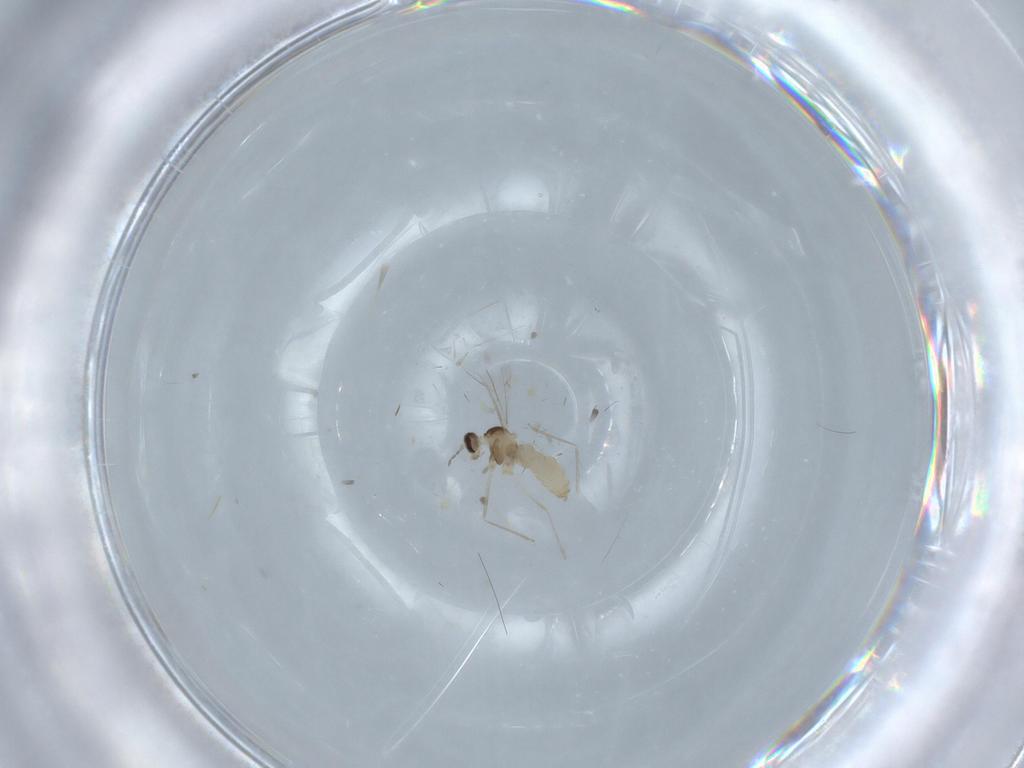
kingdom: Animalia
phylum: Arthropoda
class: Insecta
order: Diptera
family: Cecidomyiidae
